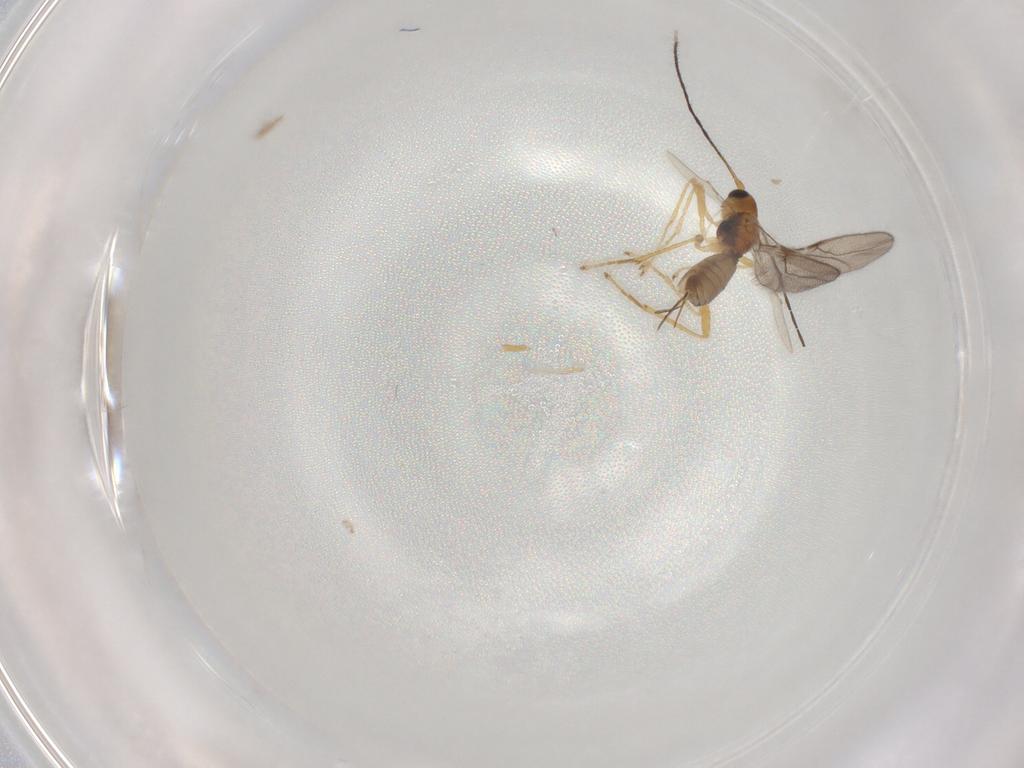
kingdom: Animalia
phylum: Arthropoda
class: Insecta
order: Hymenoptera
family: Braconidae
